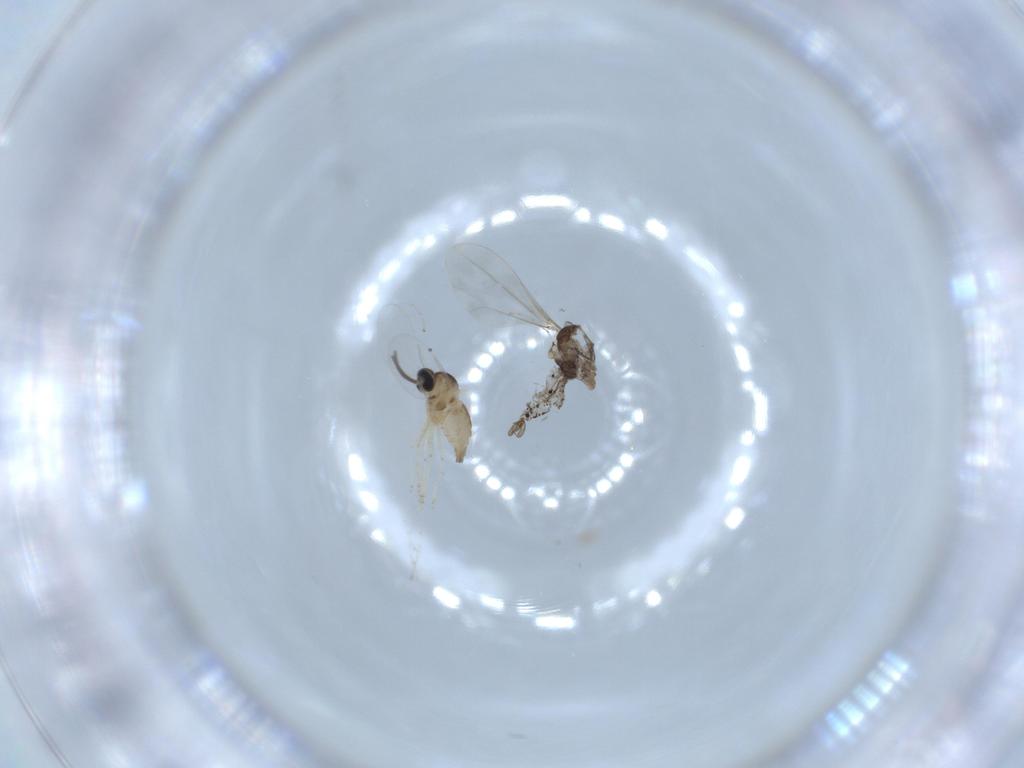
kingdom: Animalia
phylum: Arthropoda
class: Insecta
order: Diptera
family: Cecidomyiidae
